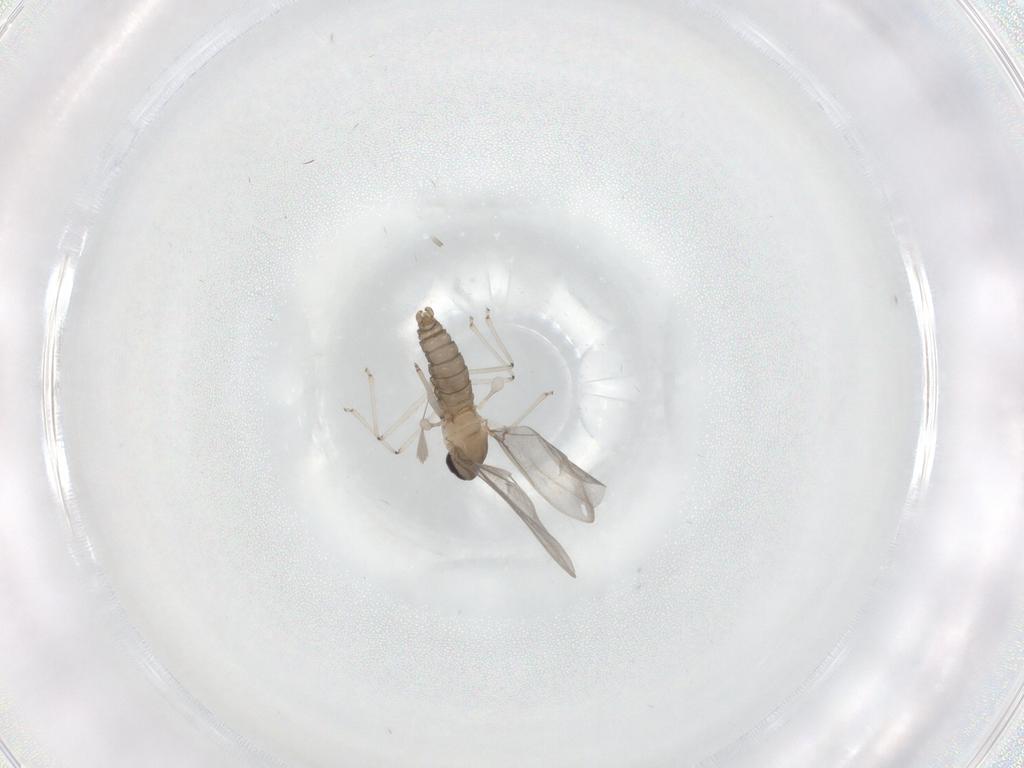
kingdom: Animalia
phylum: Arthropoda
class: Insecta
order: Diptera
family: Cecidomyiidae
